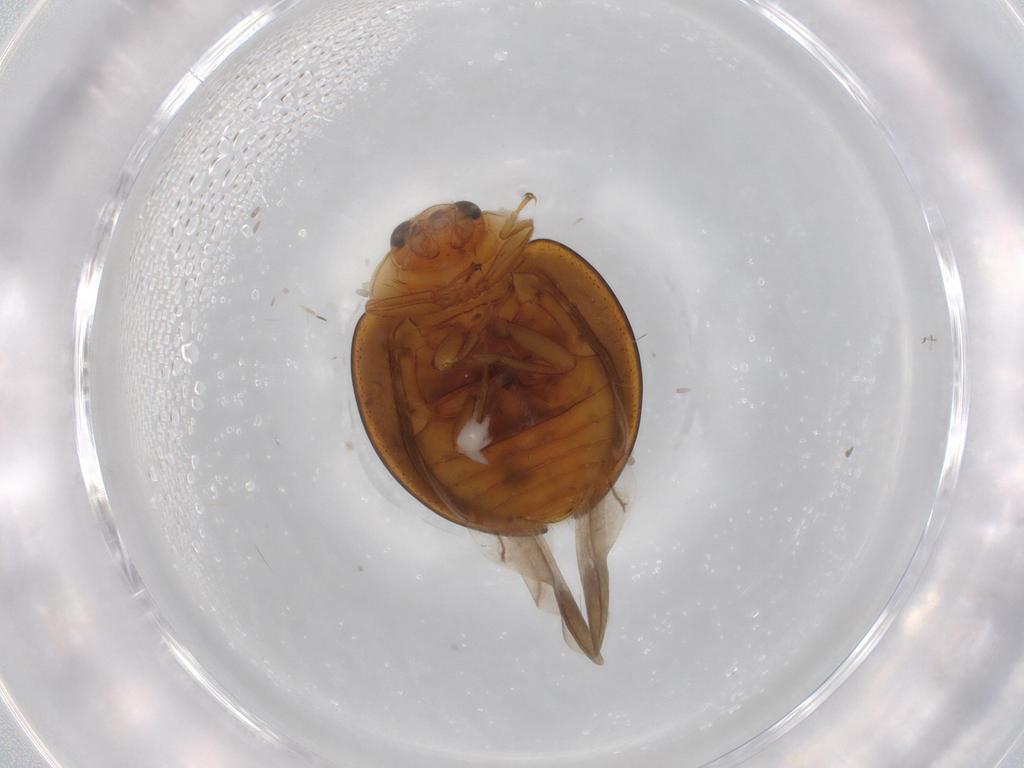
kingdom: Animalia
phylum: Arthropoda
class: Insecta
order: Coleoptera
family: Coccinellidae
